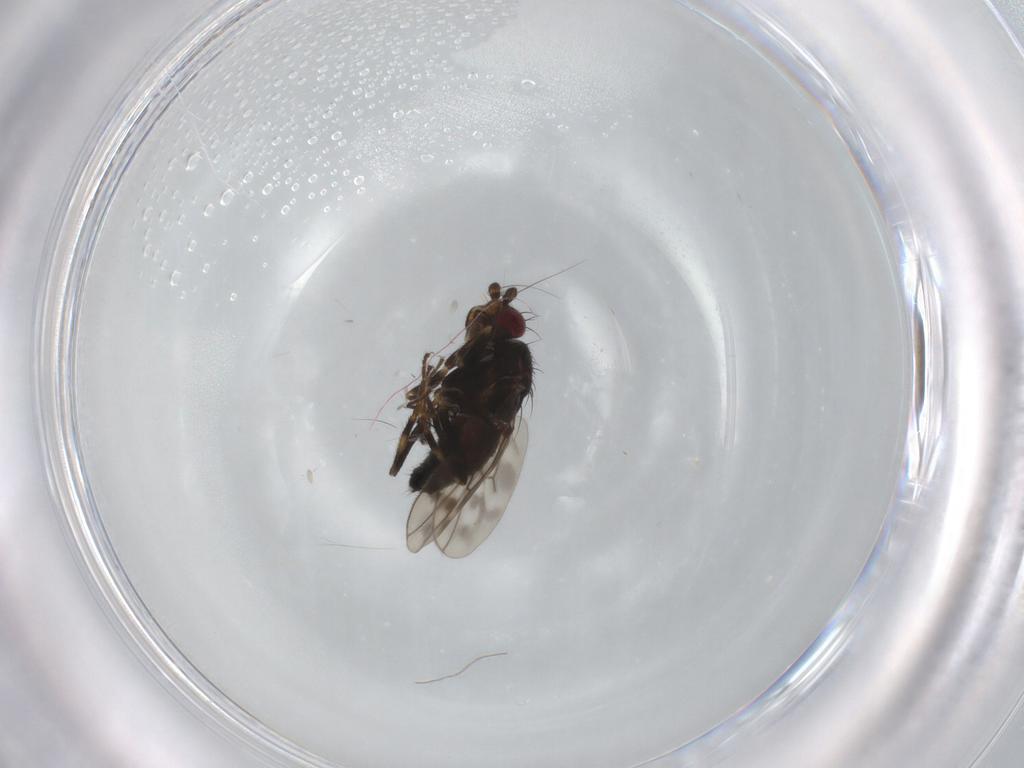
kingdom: Animalia
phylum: Arthropoda
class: Insecta
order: Diptera
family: Sphaeroceridae
